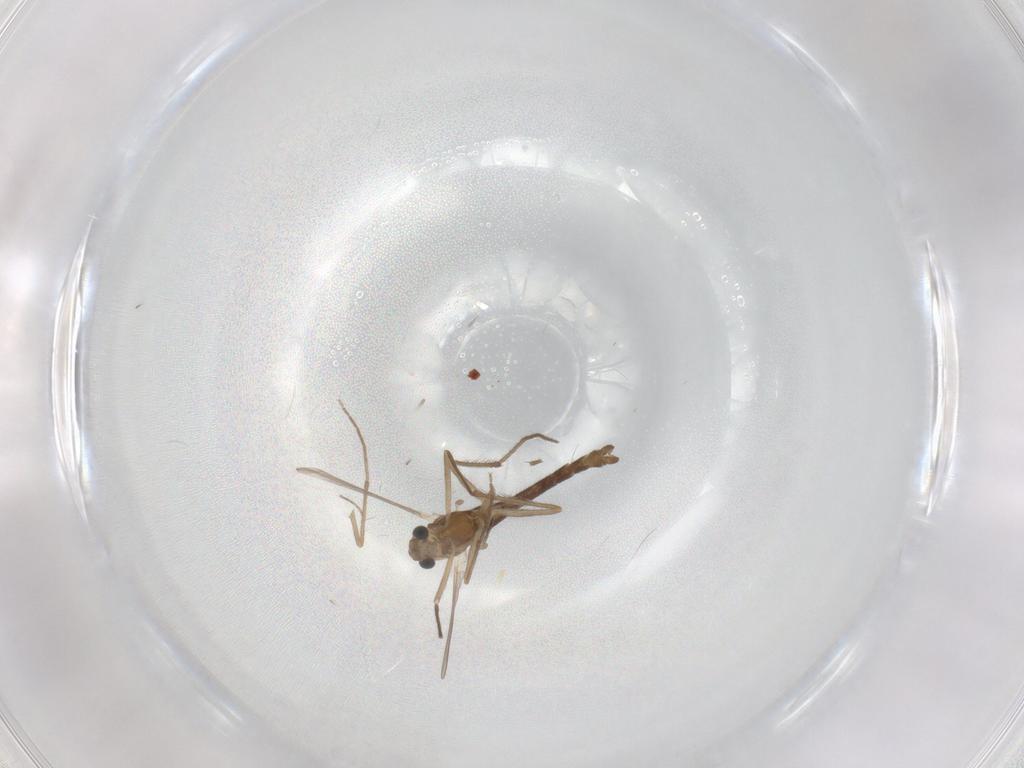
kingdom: Animalia
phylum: Arthropoda
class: Insecta
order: Diptera
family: Chironomidae
